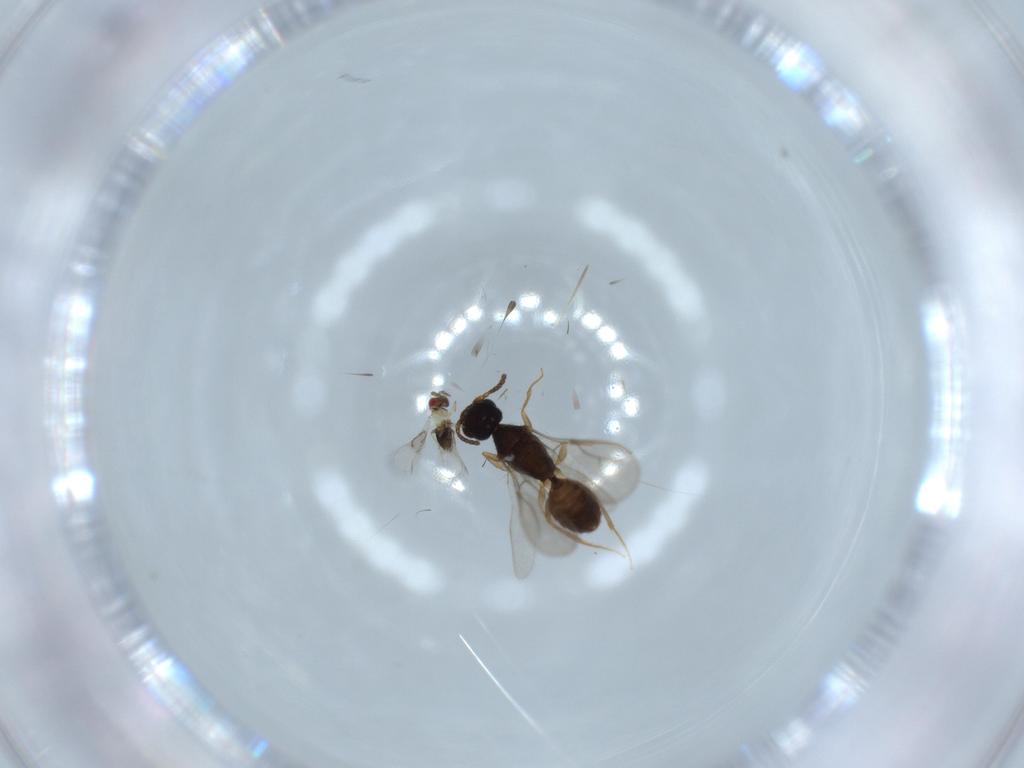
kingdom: Animalia
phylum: Arthropoda
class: Insecta
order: Hymenoptera
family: Bethylidae
